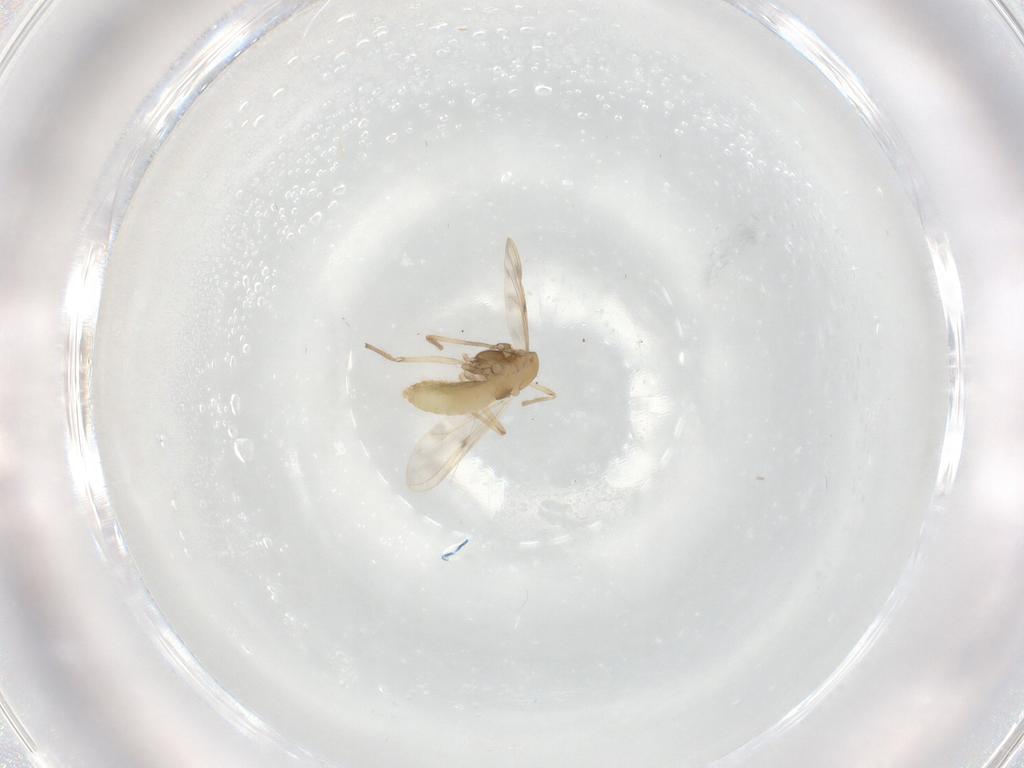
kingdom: Animalia
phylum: Arthropoda
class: Insecta
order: Diptera
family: Chironomidae
